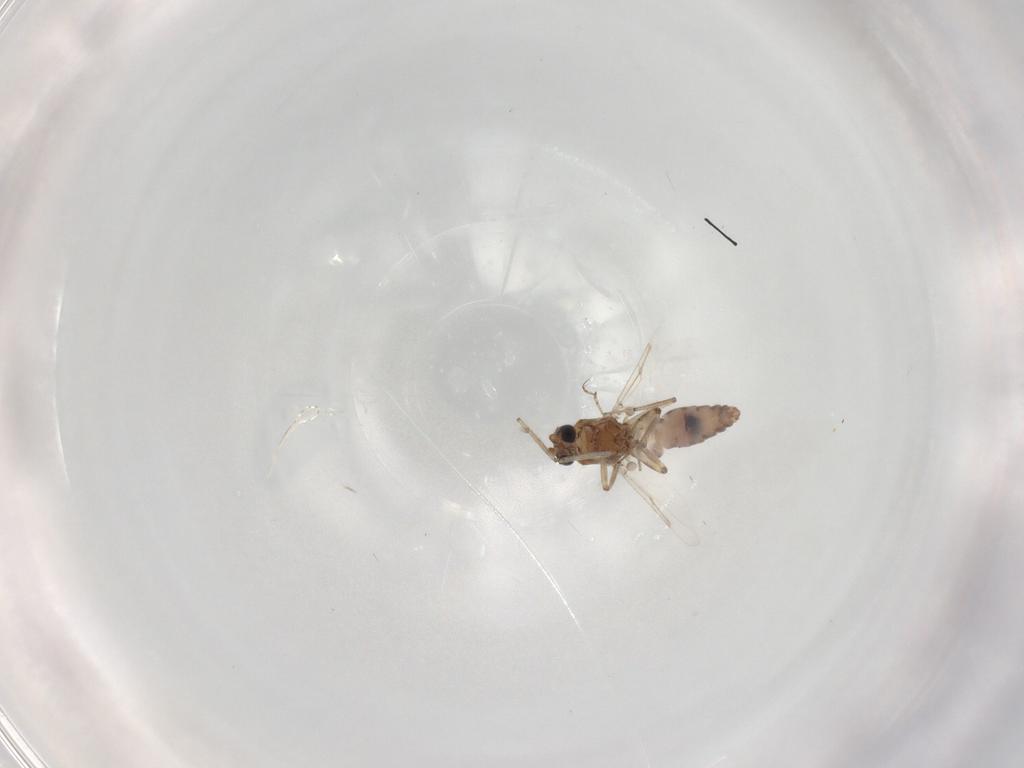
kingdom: Animalia
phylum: Arthropoda
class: Insecta
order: Diptera
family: Ceratopogonidae
